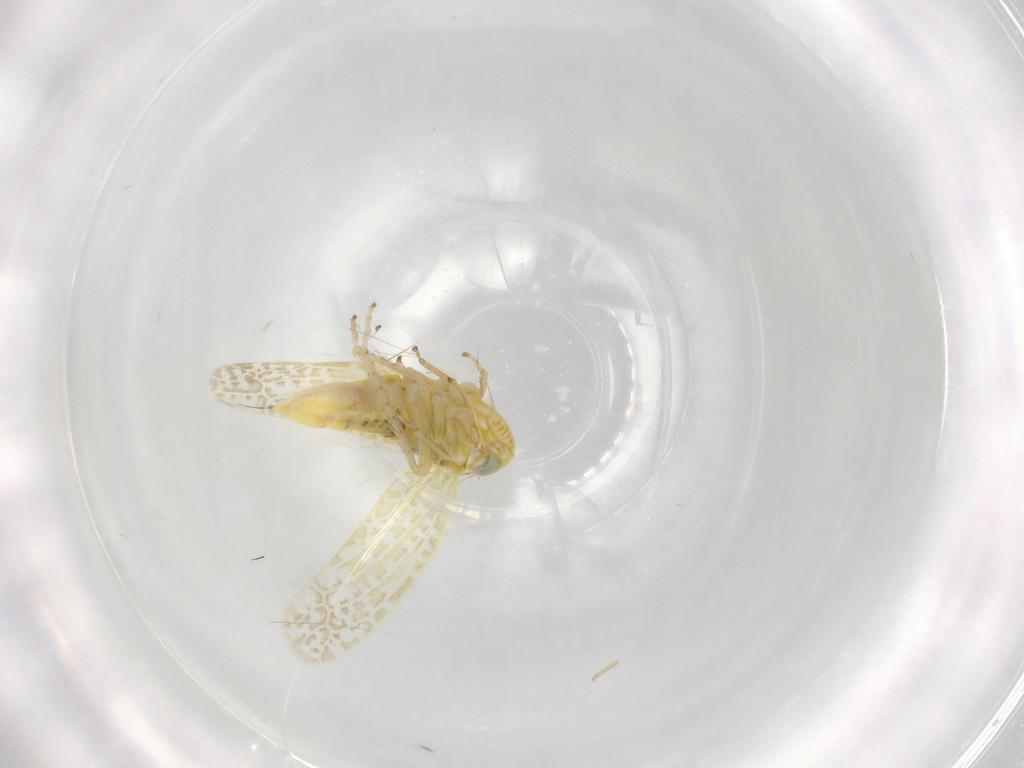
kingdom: Animalia
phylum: Arthropoda
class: Insecta
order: Hemiptera
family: Cicadellidae
